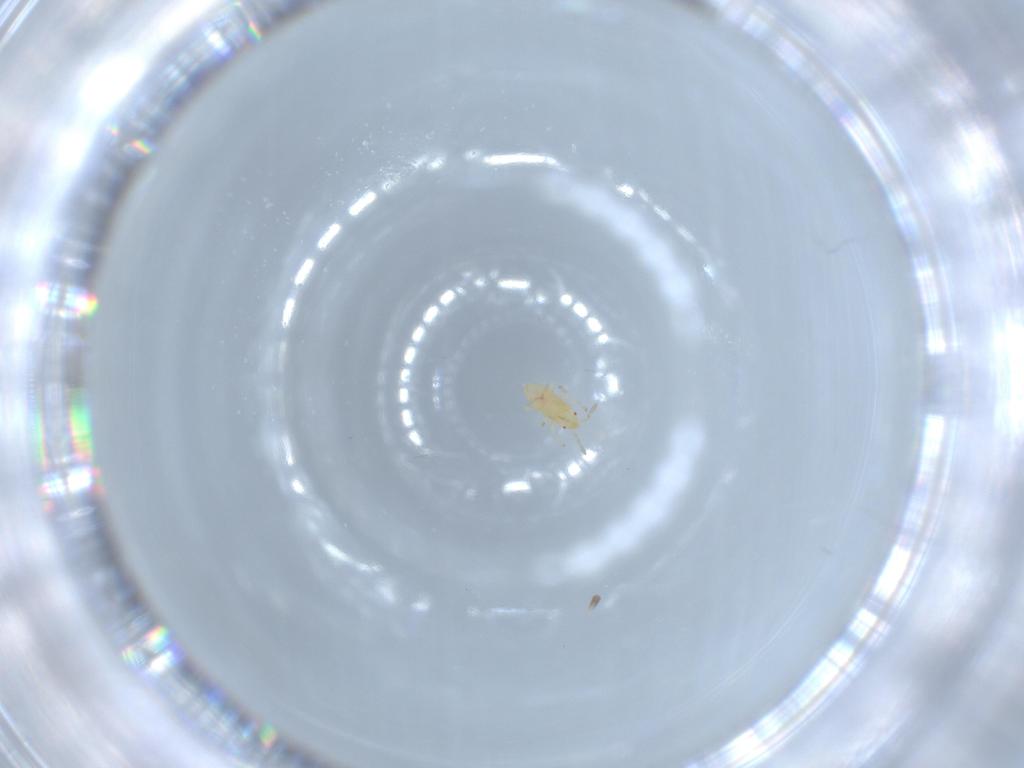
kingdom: Animalia
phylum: Arthropoda
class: Insecta
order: Hemiptera
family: Anthocoridae
